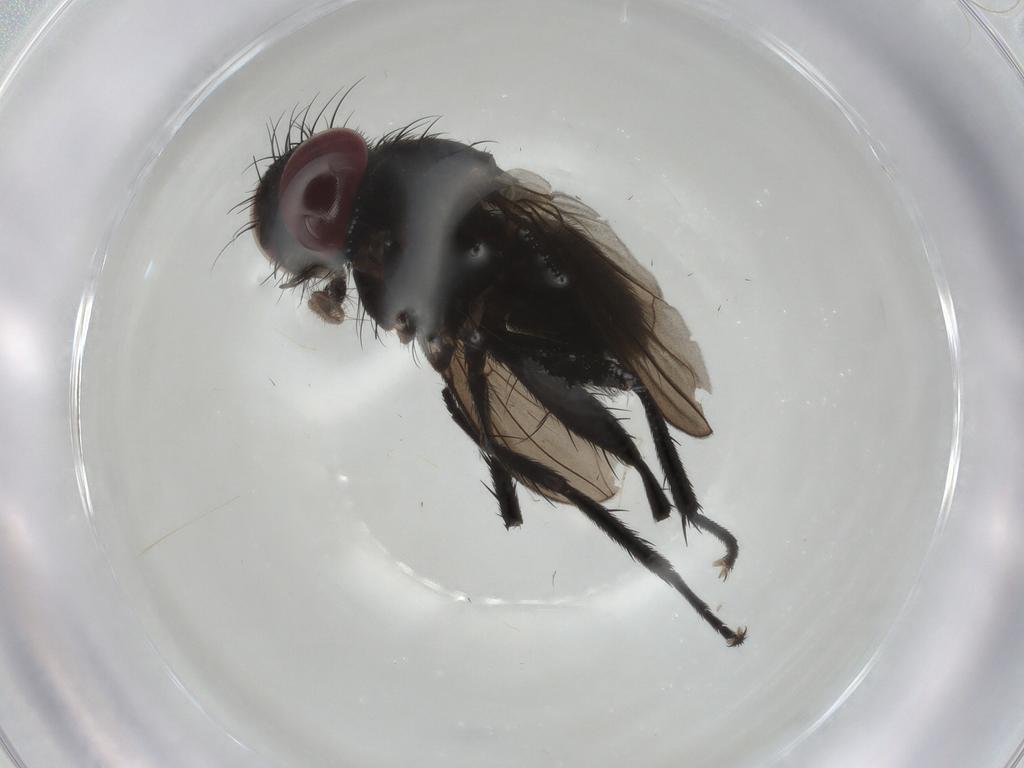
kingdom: Animalia
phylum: Arthropoda
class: Insecta
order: Diptera
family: Calliphoridae
